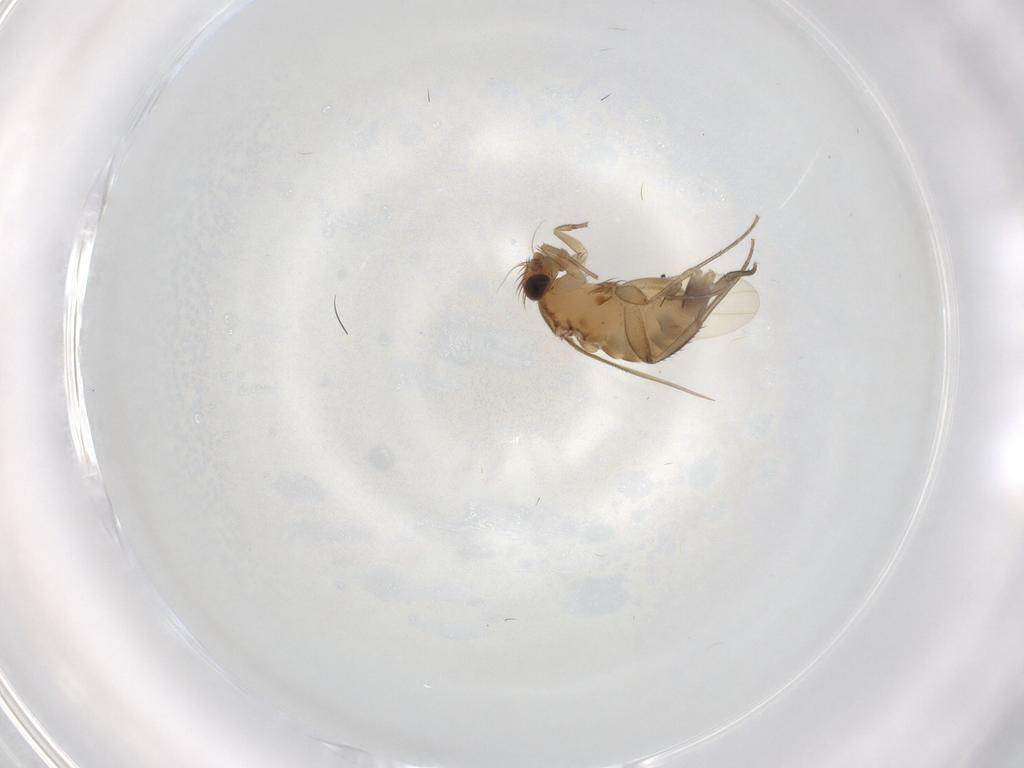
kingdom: Animalia
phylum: Arthropoda
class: Insecta
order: Diptera
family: Phoridae
